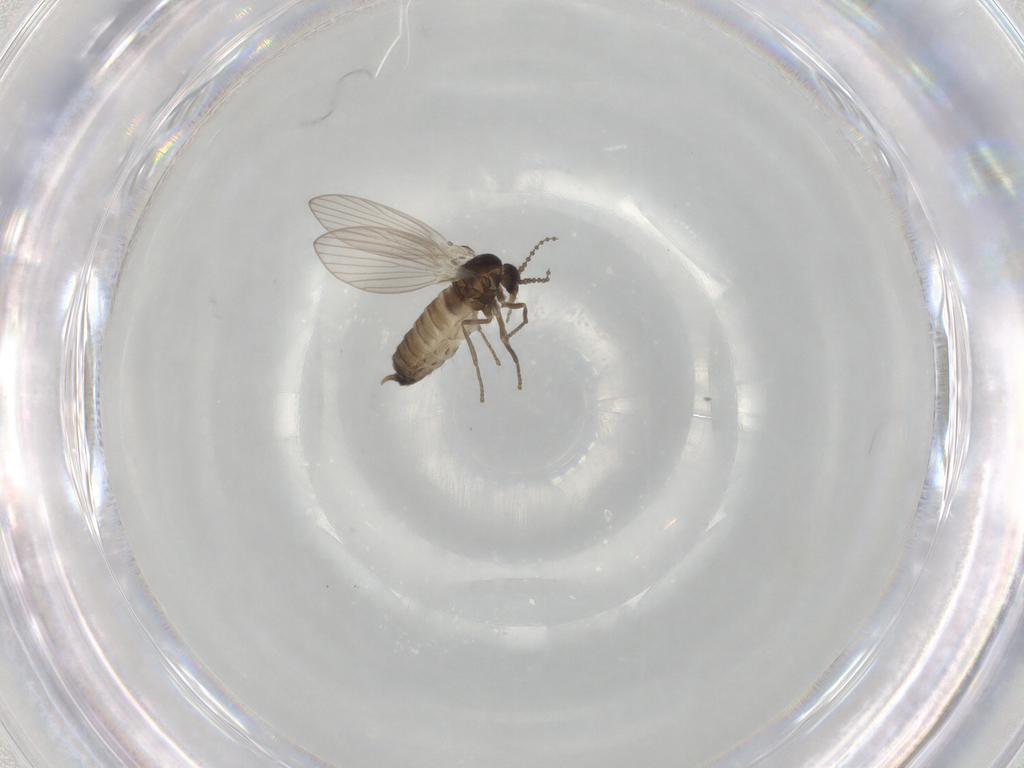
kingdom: Animalia
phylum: Arthropoda
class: Insecta
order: Diptera
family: Psychodidae
